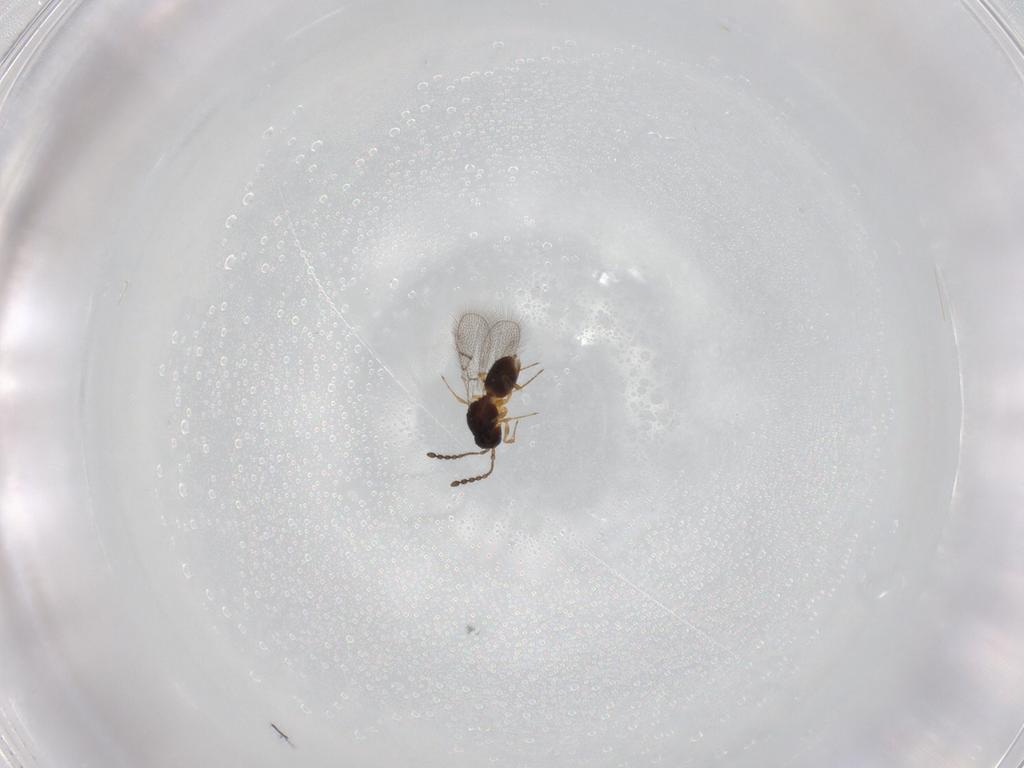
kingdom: Animalia
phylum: Arthropoda
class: Insecta
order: Hymenoptera
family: Figitidae
